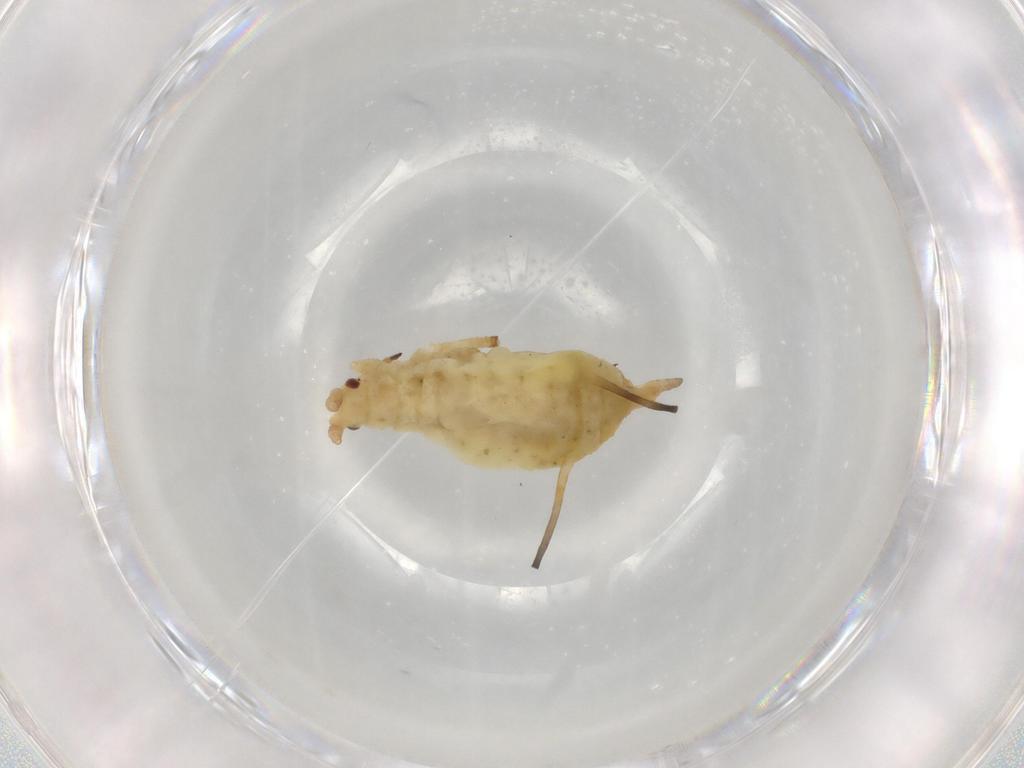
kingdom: Animalia
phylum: Arthropoda
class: Insecta
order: Hemiptera
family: Aphididae
